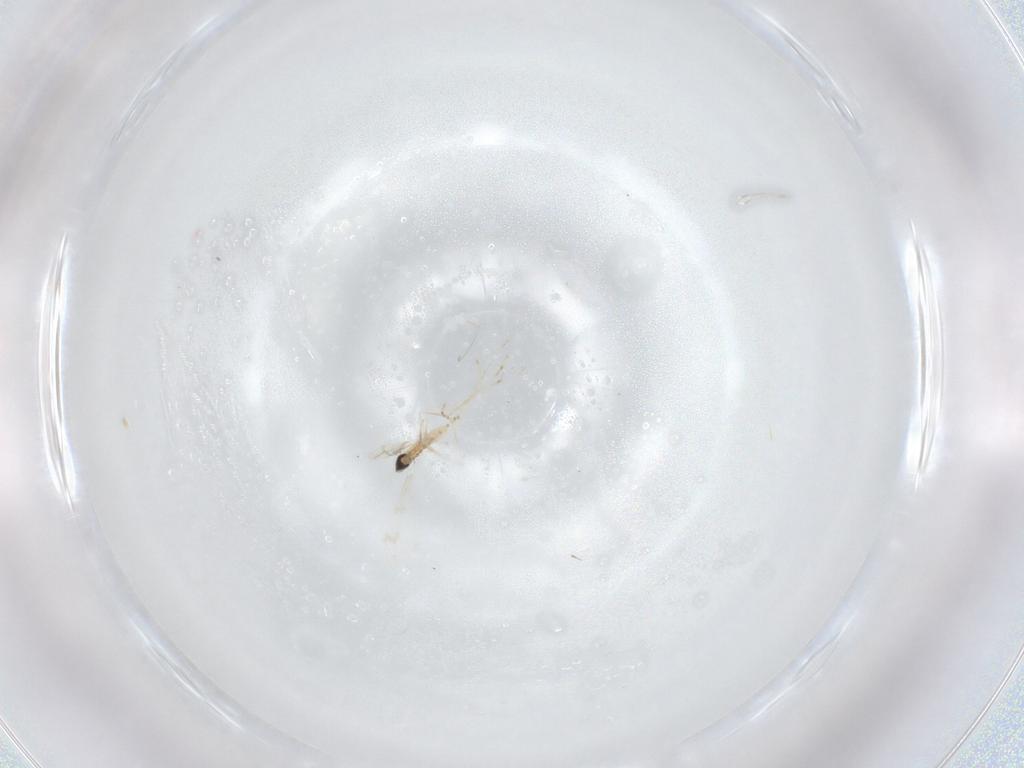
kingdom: Animalia
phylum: Arthropoda
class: Insecta
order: Diptera
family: Cecidomyiidae
